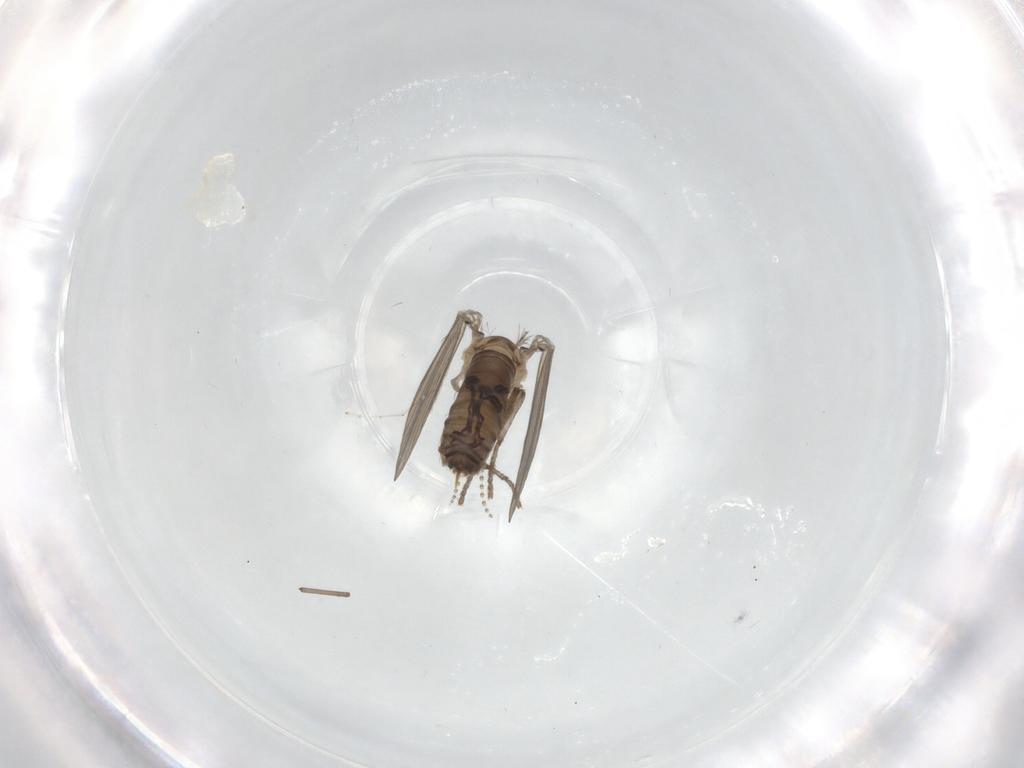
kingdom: Animalia
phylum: Arthropoda
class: Insecta
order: Diptera
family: Psychodidae
